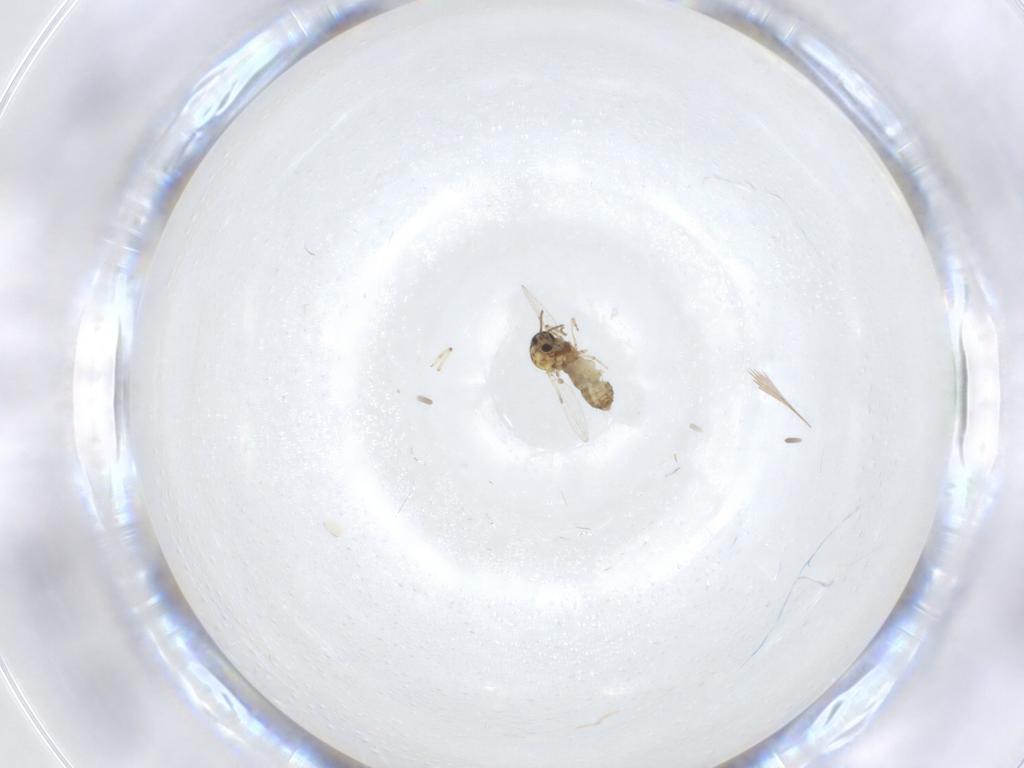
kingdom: Animalia
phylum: Arthropoda
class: Insecta
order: Diptera
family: Ceratopogonidae
